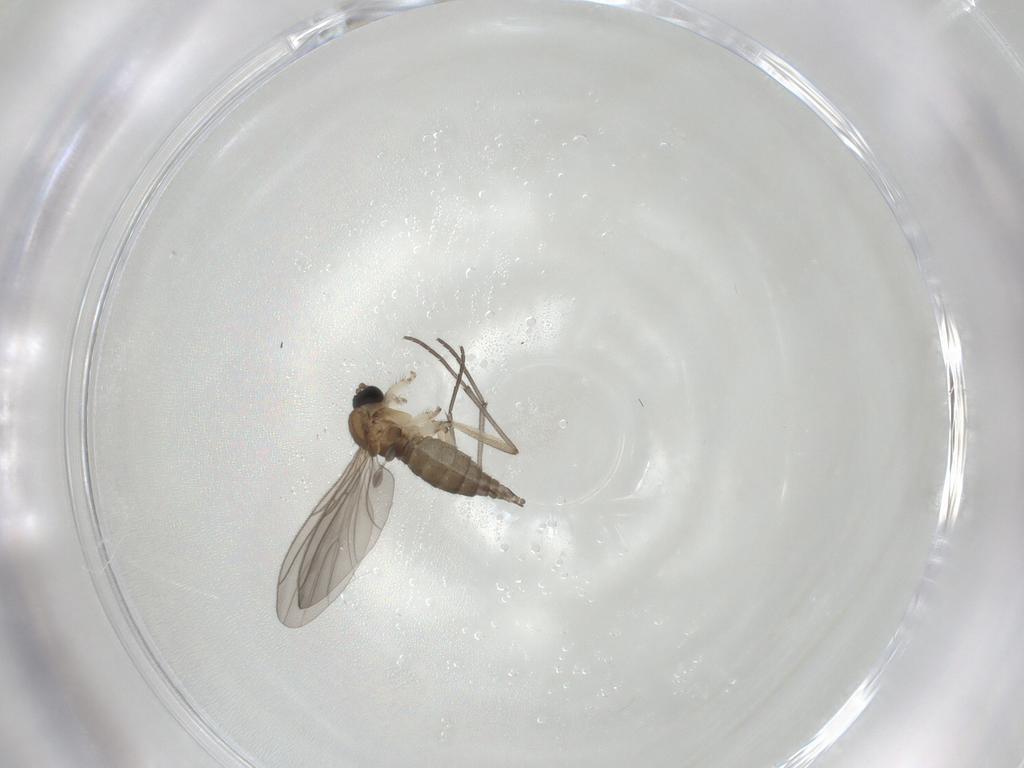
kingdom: Animalia
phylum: Arthropoda
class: Insecta
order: Diptera
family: Sciaridae
